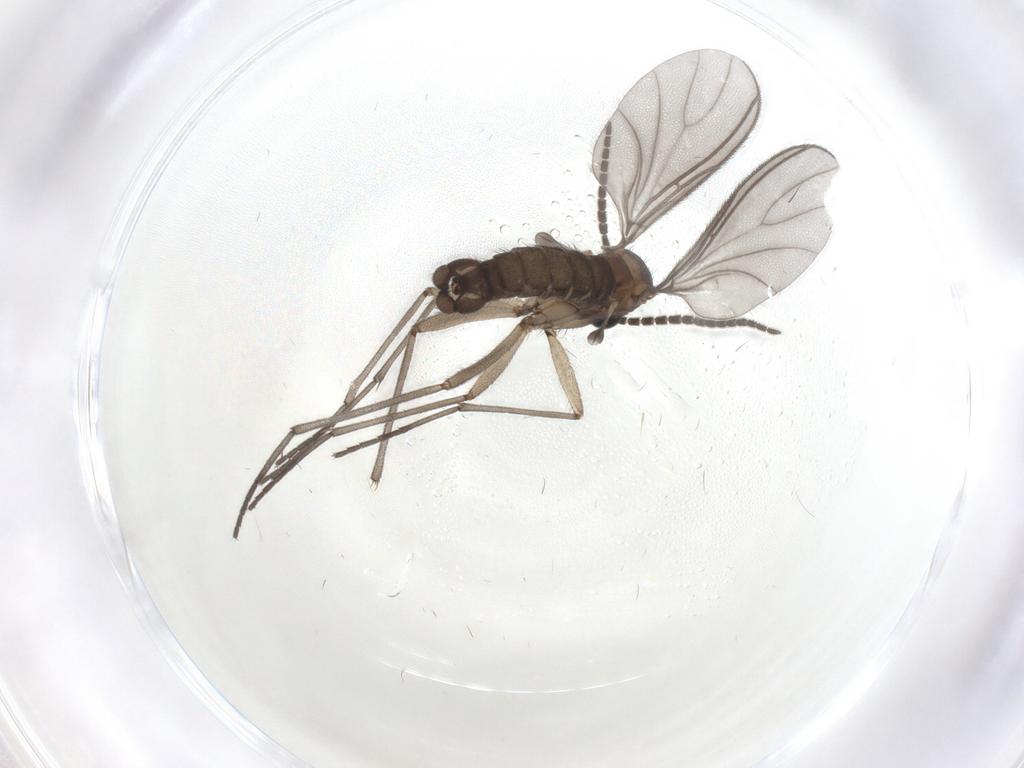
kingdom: Animalia
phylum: Arthropoda
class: Insecta
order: Diptera
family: Sciaridae
